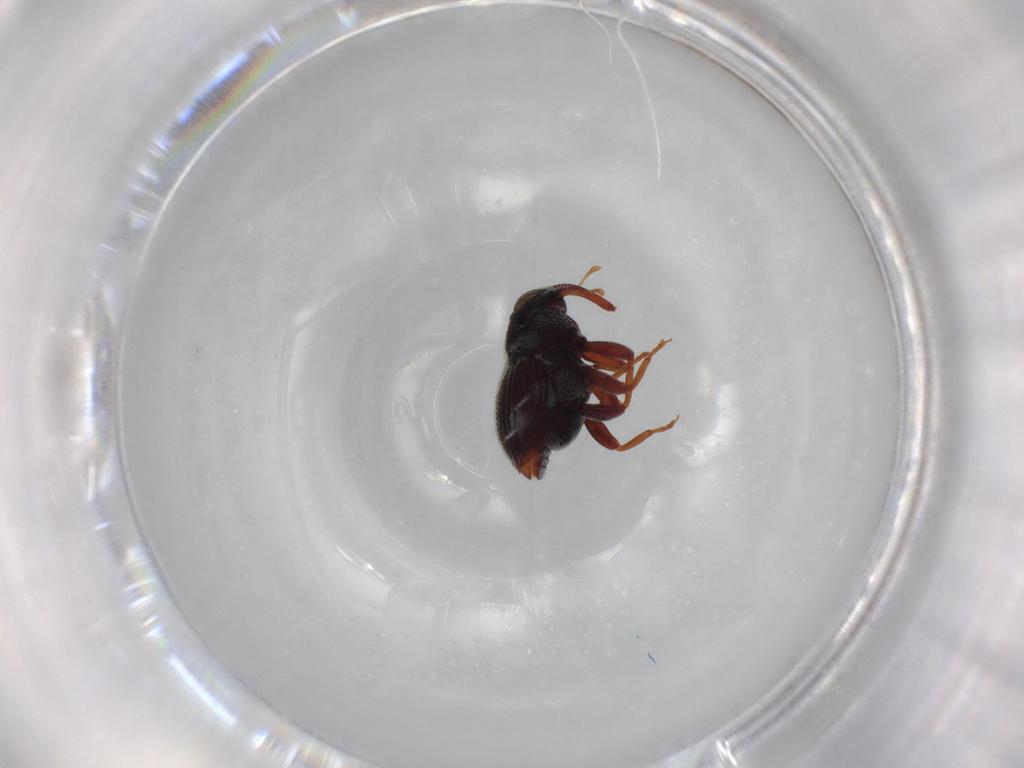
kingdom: Animalia
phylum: Arthropoda
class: Insecta
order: Coleoptera
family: Curculionidae
